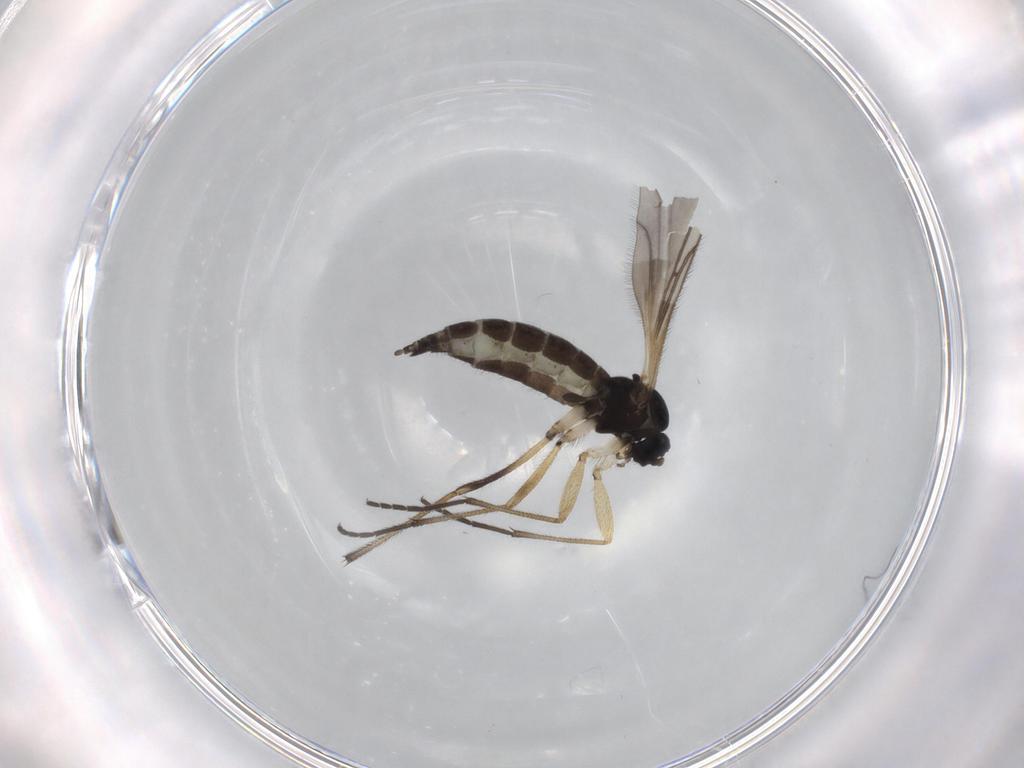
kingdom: Animalia
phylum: Arthropoda
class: Insecta
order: Diptera
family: Sciaridae
